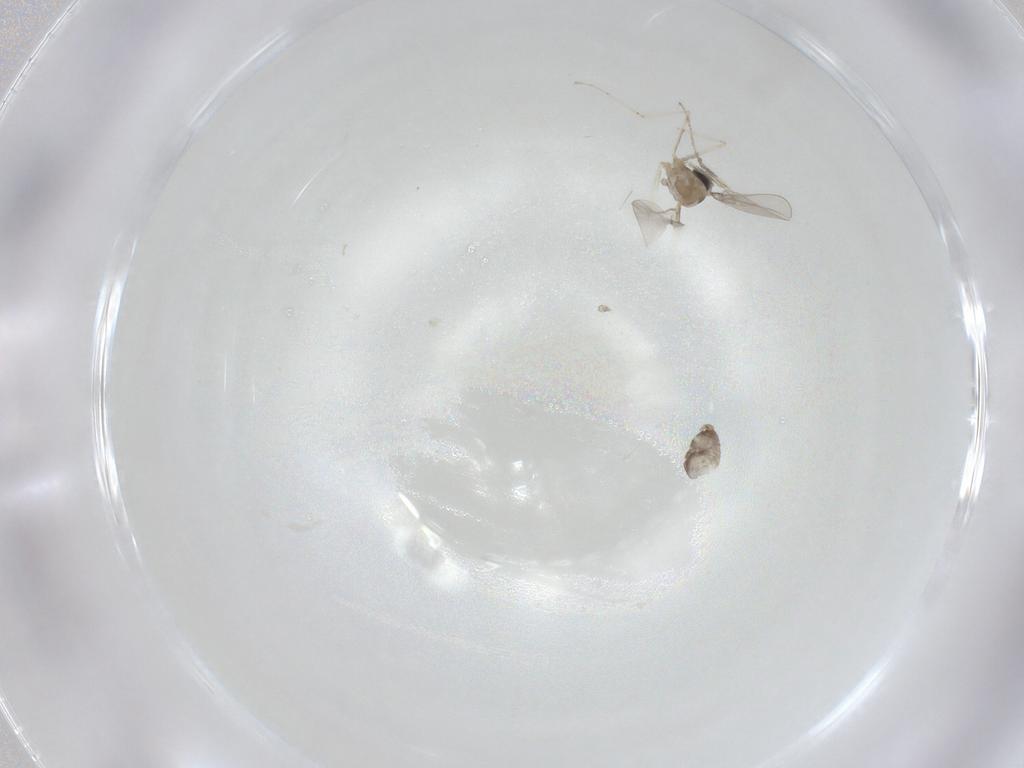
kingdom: Animalia
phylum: Arthropoda
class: Insecta
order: Diptera
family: Cecidomyiidae
